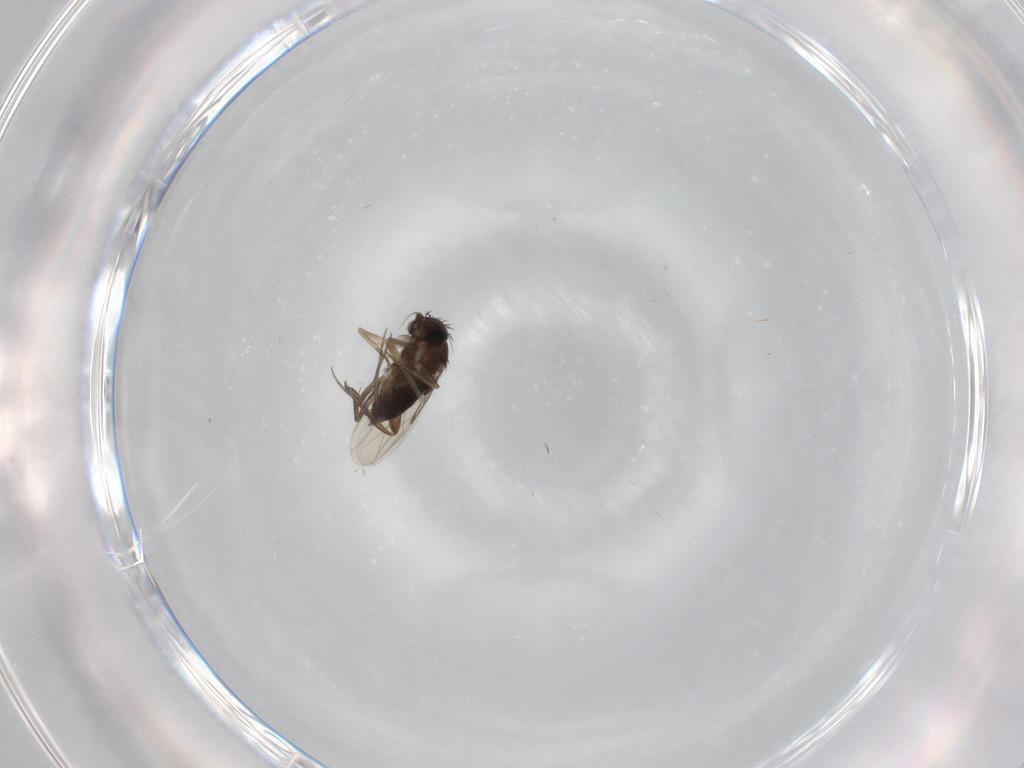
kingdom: Animalia
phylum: Arthropoda
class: Insecta
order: Diptera
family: Phoridae
